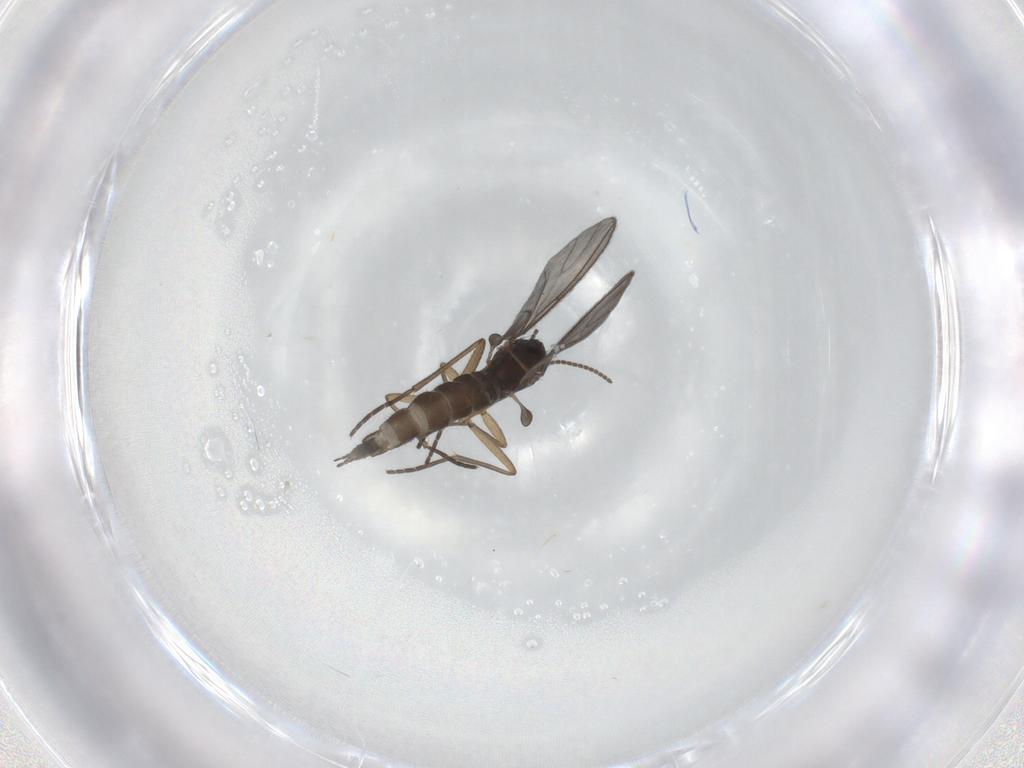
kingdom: Animalia
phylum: Arthropoda
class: Insecta
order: Diptera
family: Sciaridae
